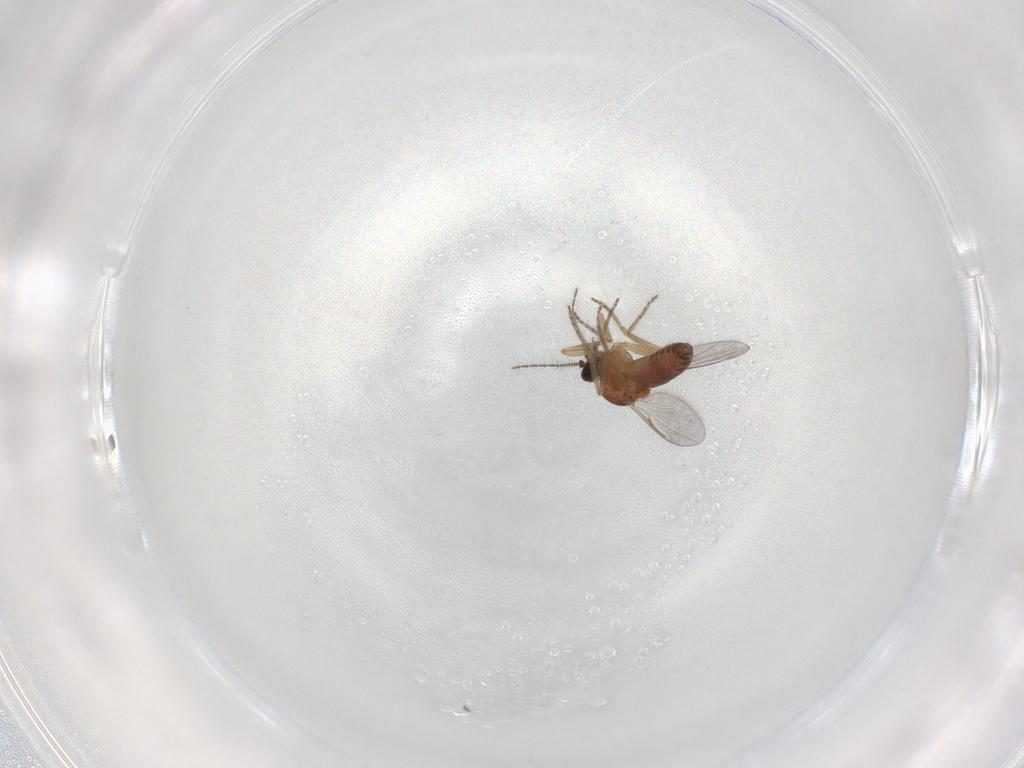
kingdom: Animalia
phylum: Arthropoda
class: Insecta
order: Diptera
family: Ceratopogonidae
